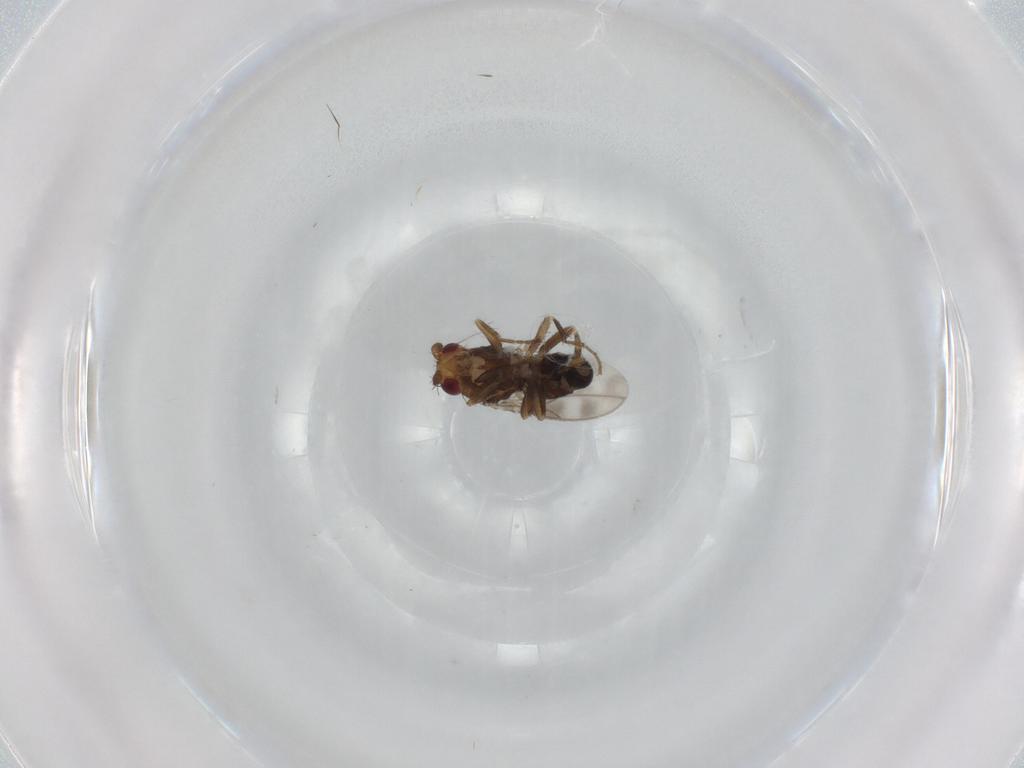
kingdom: Animalia
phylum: Arthropoda
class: Insecta
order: Diptera
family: Sphaeroceridae
